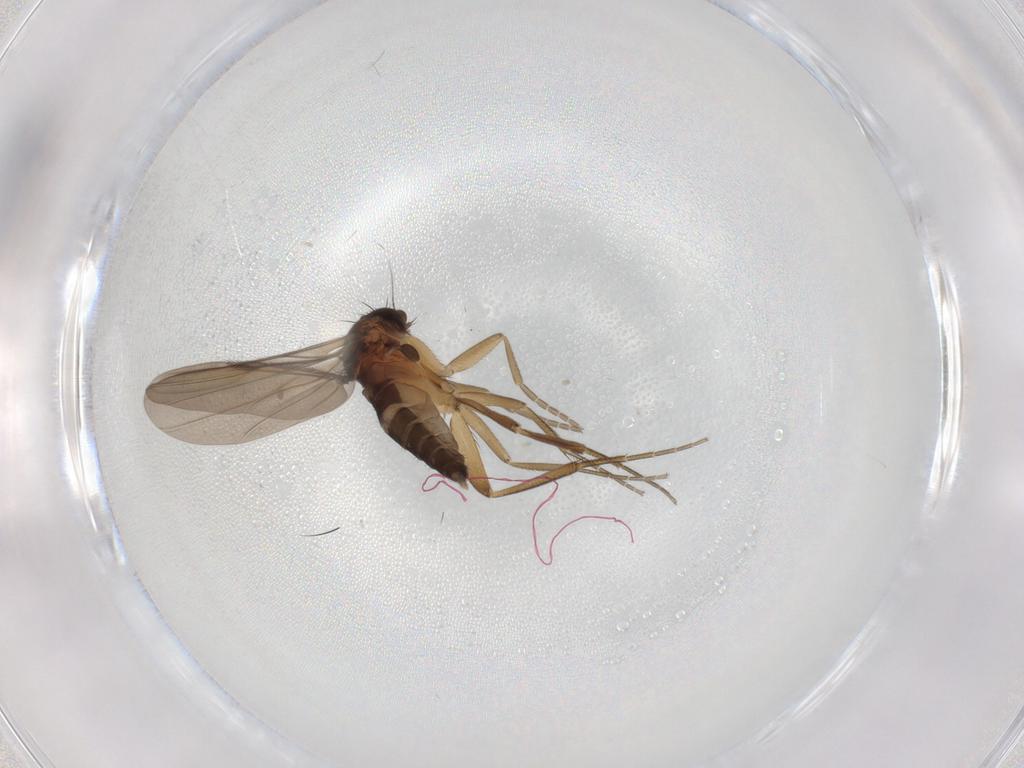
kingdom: Animalia
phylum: Arthropoda
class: Insecta
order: Diptera
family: Phoridae
